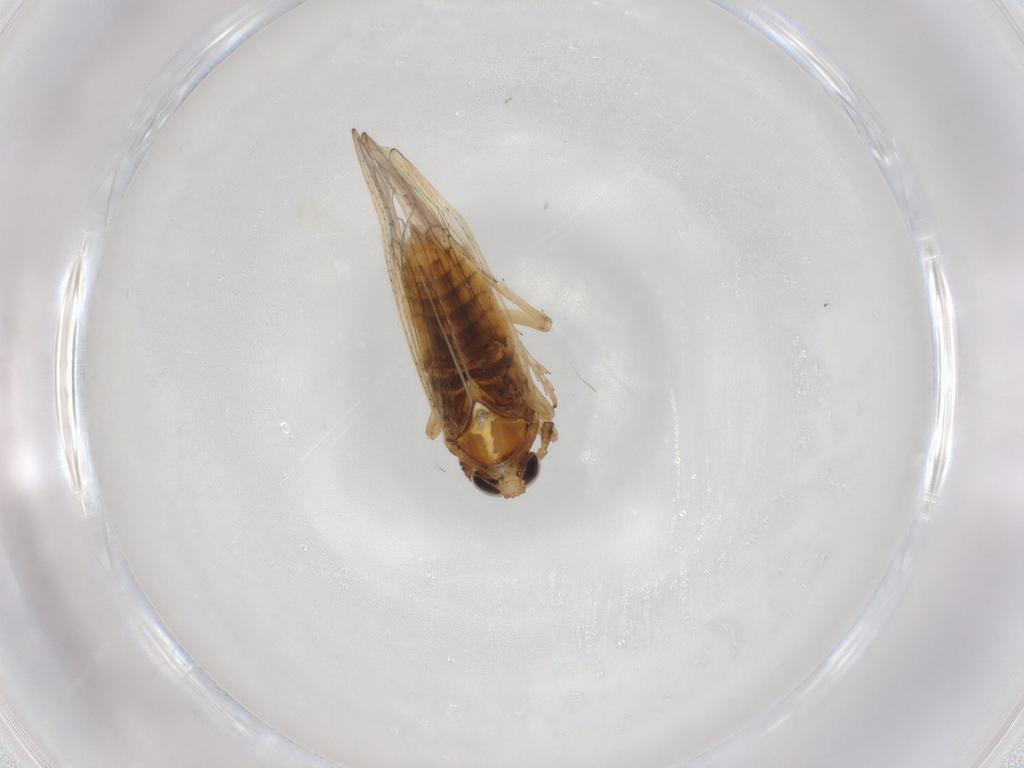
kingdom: Animalia
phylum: Arthropoda
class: Insecta
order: Hemiptera
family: Delphacidae
